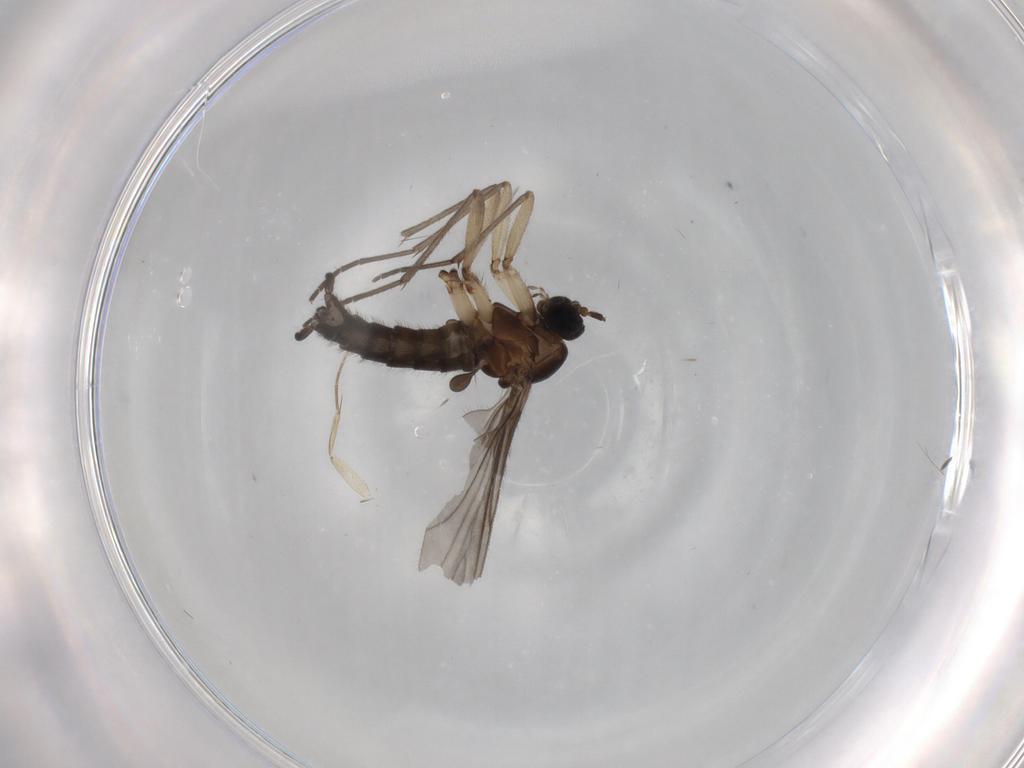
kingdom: Animalia
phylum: Arthropoda
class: Insecta
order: Diptera
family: Sciaridae
